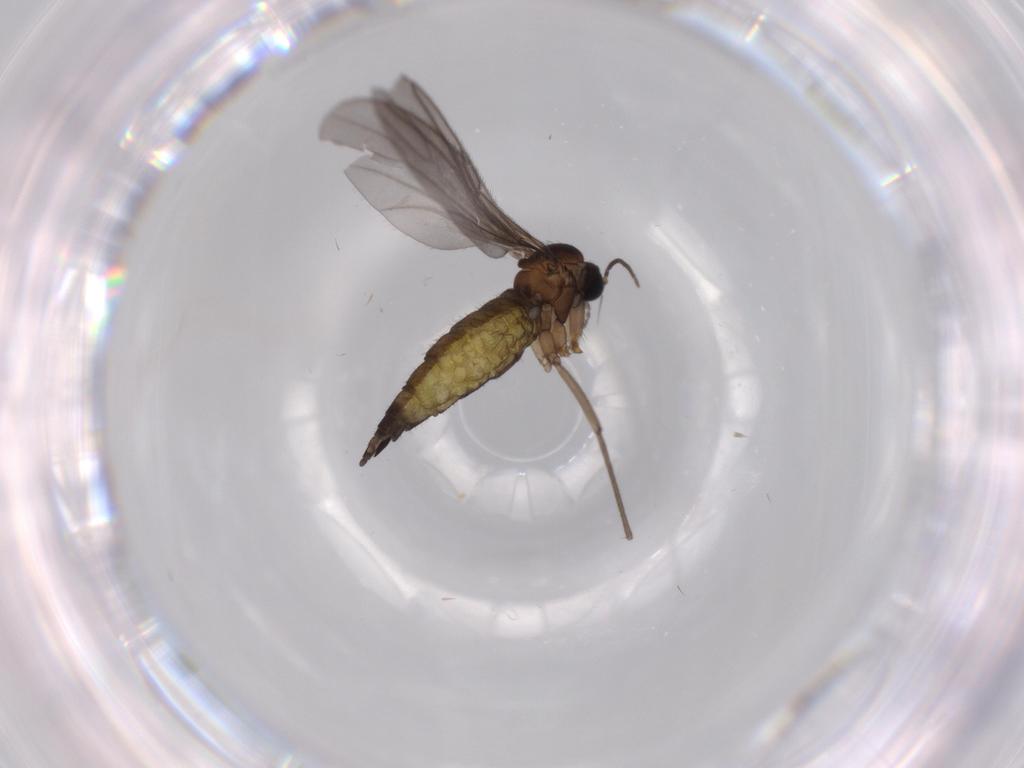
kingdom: Animalia
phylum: Arthropoda
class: Insecta
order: Diptera
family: Sciaridae
